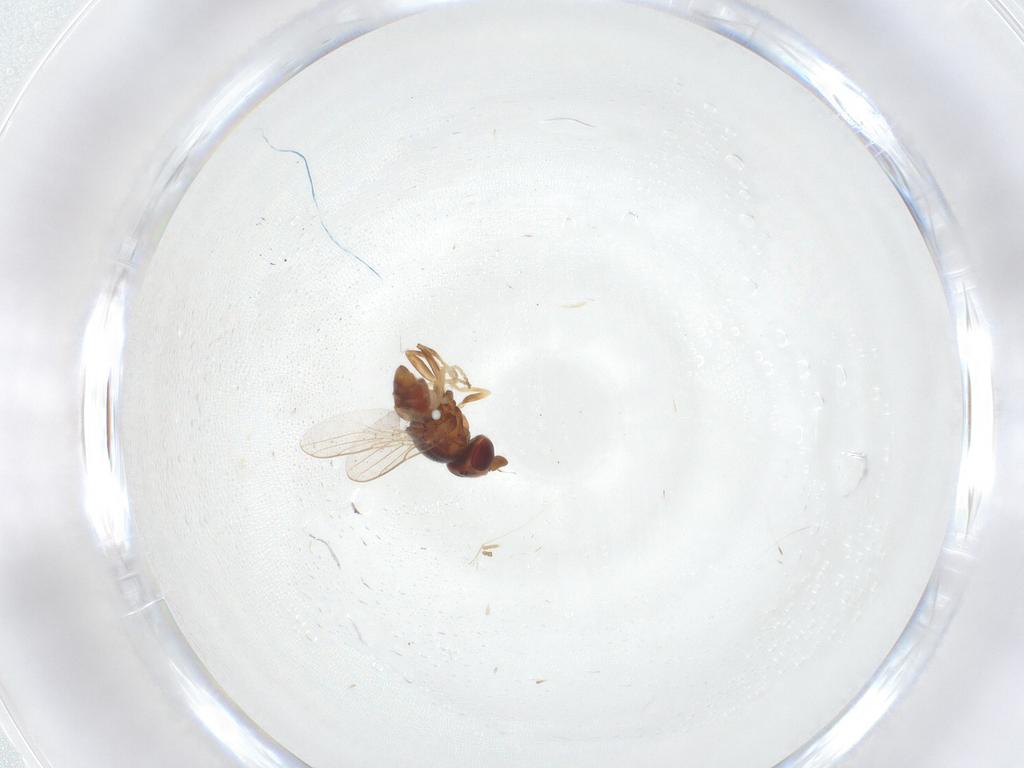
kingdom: Animalia
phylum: Arthropoda
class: Insecta
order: Diptera
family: Chloropidae
